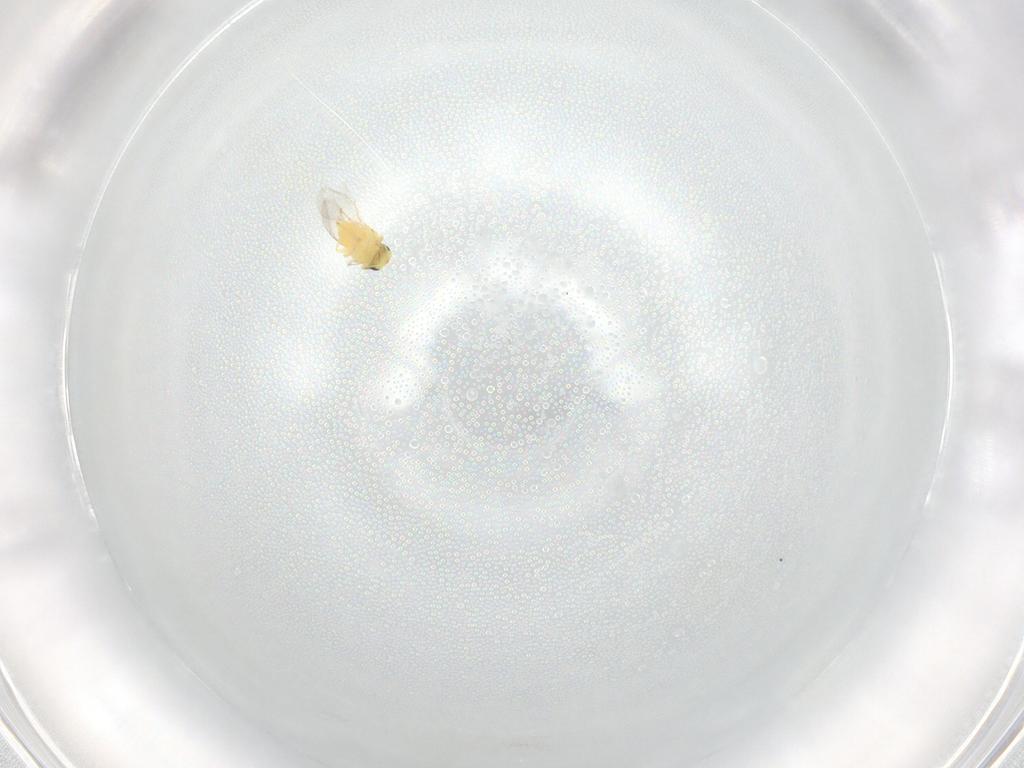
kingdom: Animalia
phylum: Arthropoda
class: Insecta
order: Hymenoptera
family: Aphelinidae
